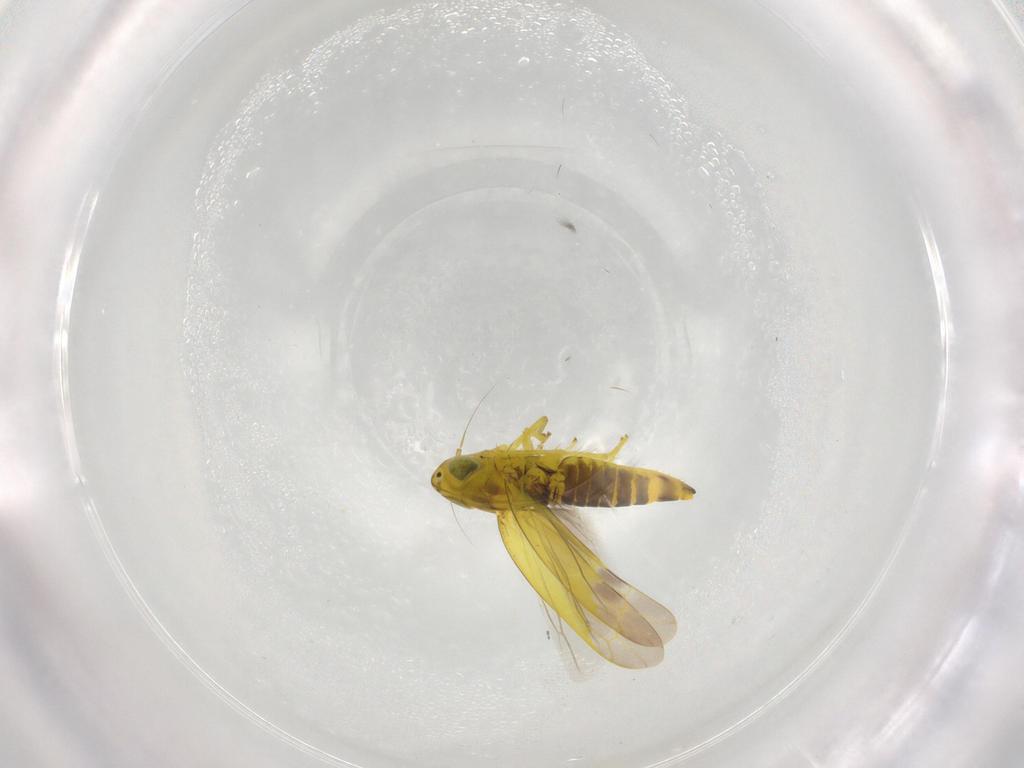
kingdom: Animalia
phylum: Arthropoda
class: Insecta
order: Hemiptera
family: Cicadellidae
